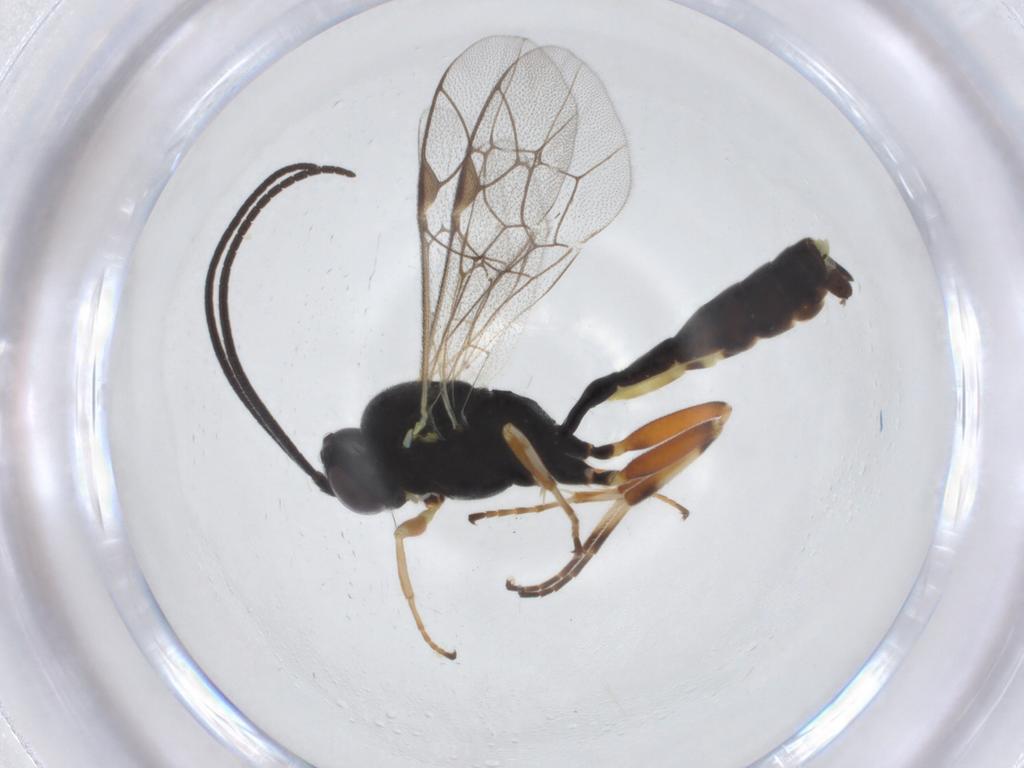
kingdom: Animalia
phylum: Arthropoda
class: Insecta
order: Hymenoptera
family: Ichneumonidae
